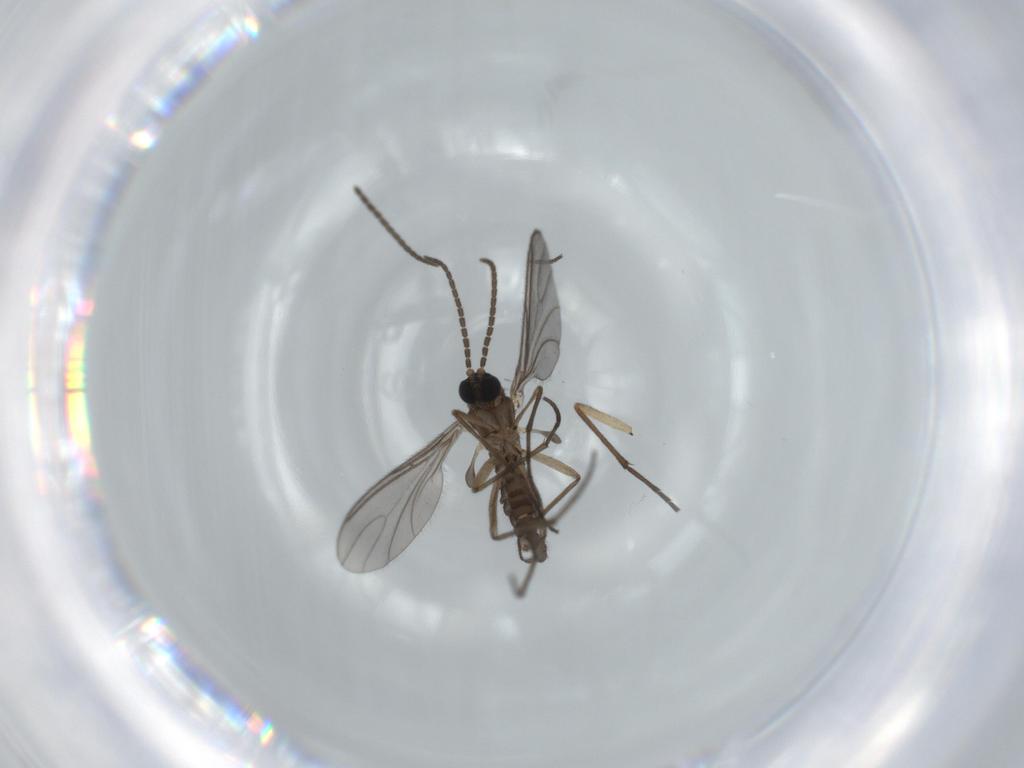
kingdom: Animalia
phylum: Arthropoda
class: Insecta
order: Diptera
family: Sciaridae
